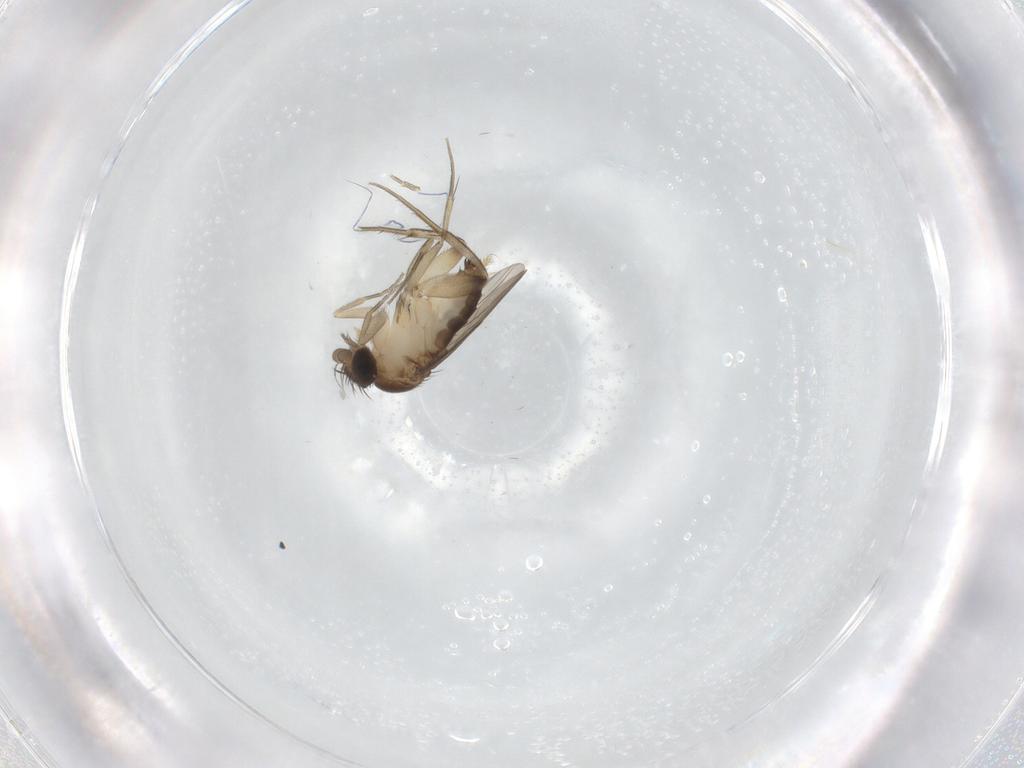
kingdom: Animalia
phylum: Arthropoda
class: Insecta
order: Diptera
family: Phoridae
